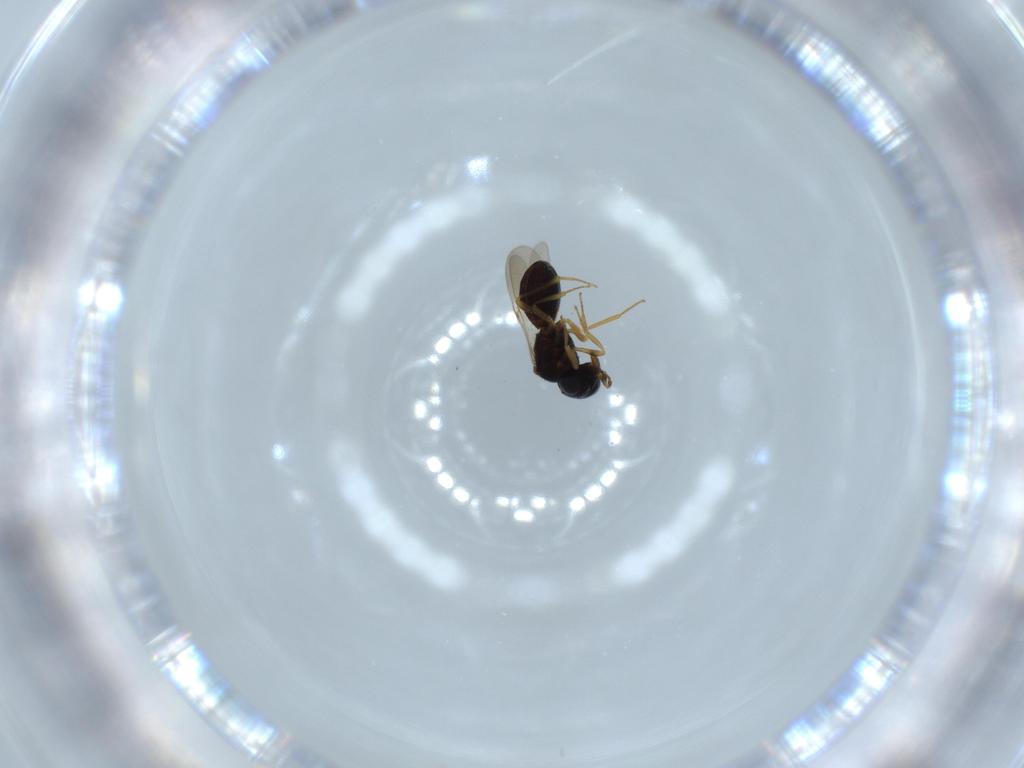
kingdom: Animalia
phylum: Arthropoda
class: Insecta
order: Hymenoptera
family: Scelionidae
